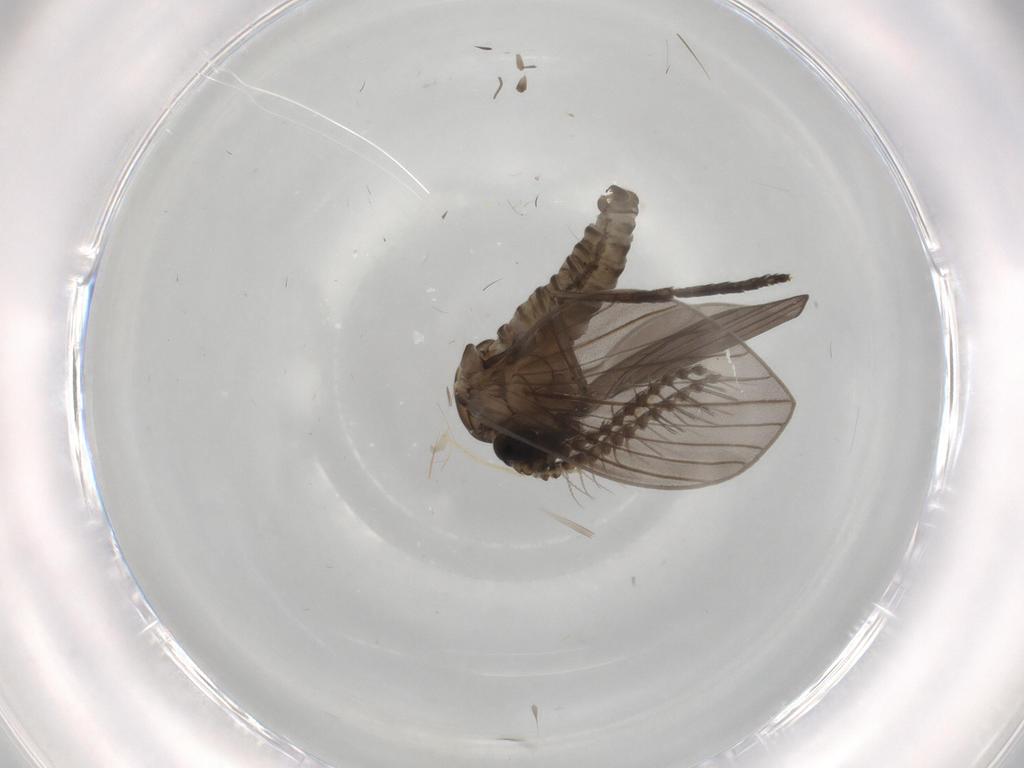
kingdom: Animalia
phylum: Arthropoda
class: Insecta
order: Diptera
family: Cecidomyiidae
